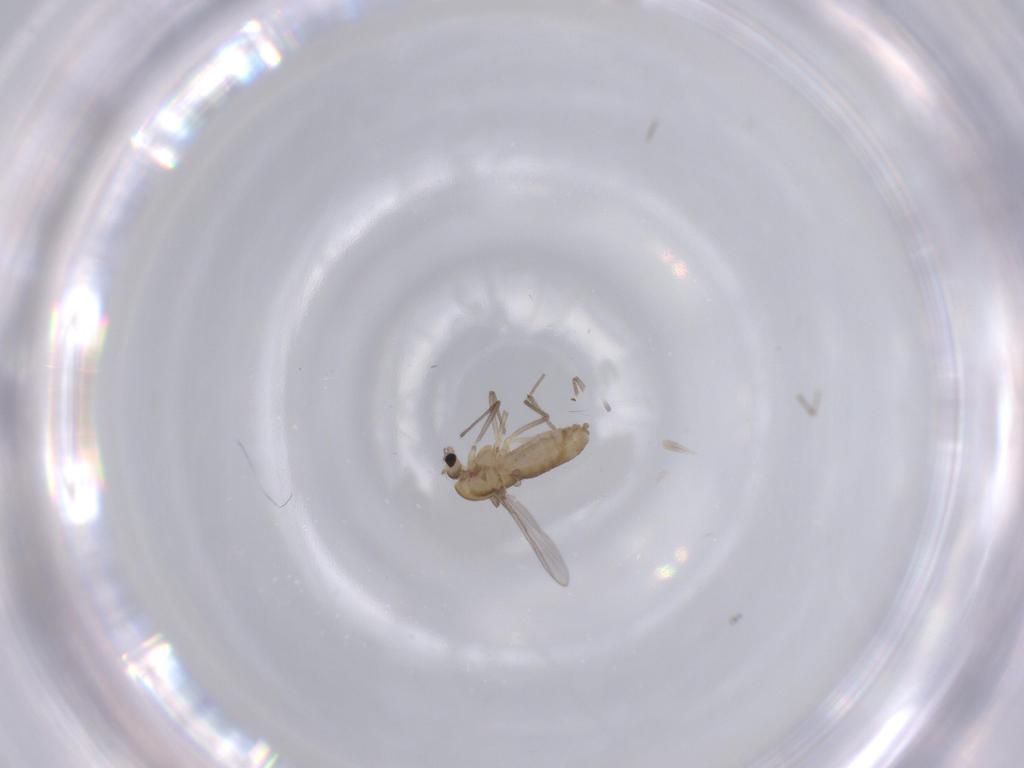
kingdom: Animalia
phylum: Arthropoda
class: Insecta
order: Diptera
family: Chironomidae
